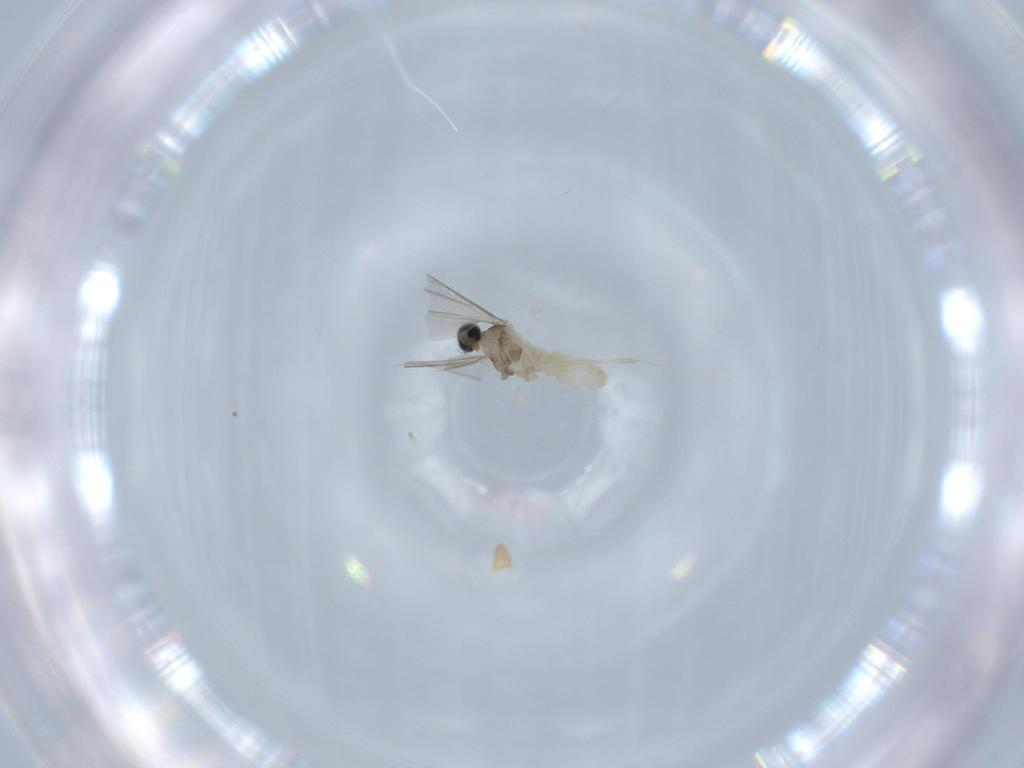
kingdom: Animalia
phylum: Arthropoda
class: Insecta
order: Diptera
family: Cecidomyiidae
